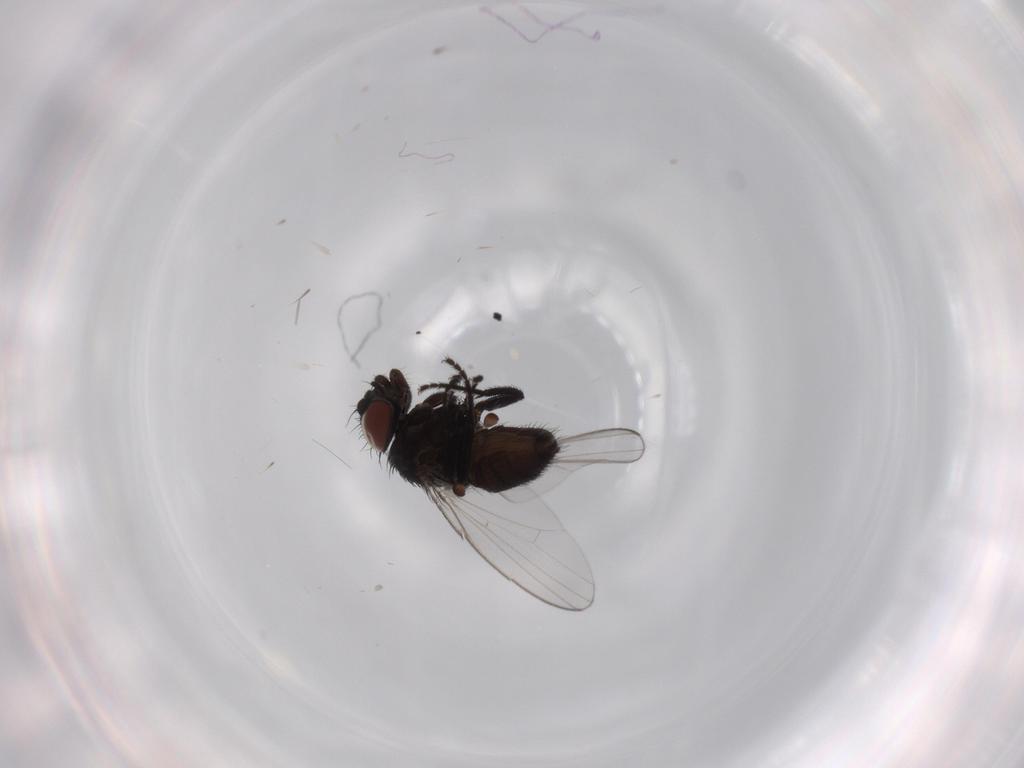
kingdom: Animalia
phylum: Arthropoda
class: Insecta
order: Diptera
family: Milichiidae
